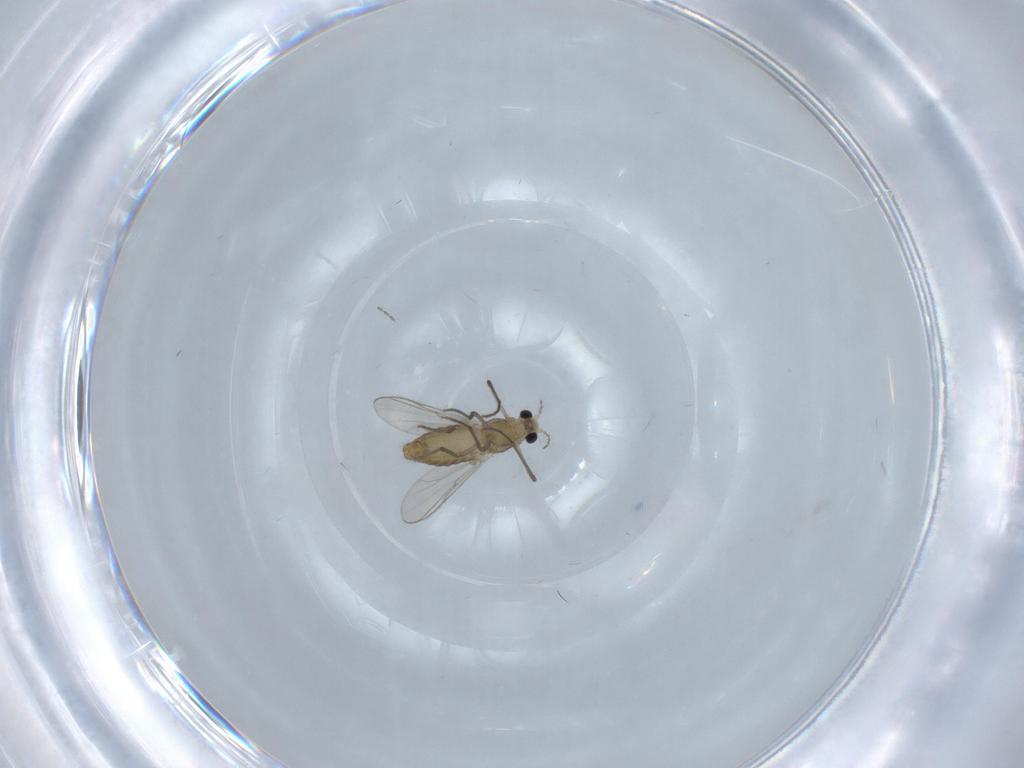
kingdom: Animalia
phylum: Arthropoda
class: Insecta
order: Diptera
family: Chironomidae
